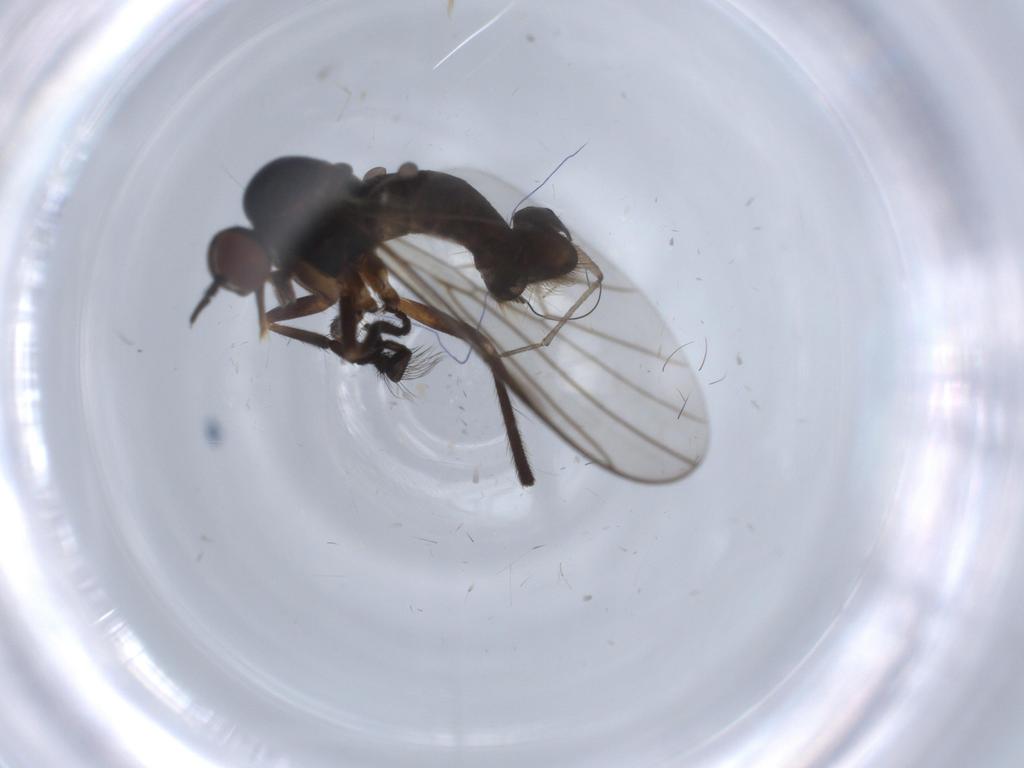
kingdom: Animalia
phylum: Arthropoda
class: Insecta
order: Diptera
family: Empididae
